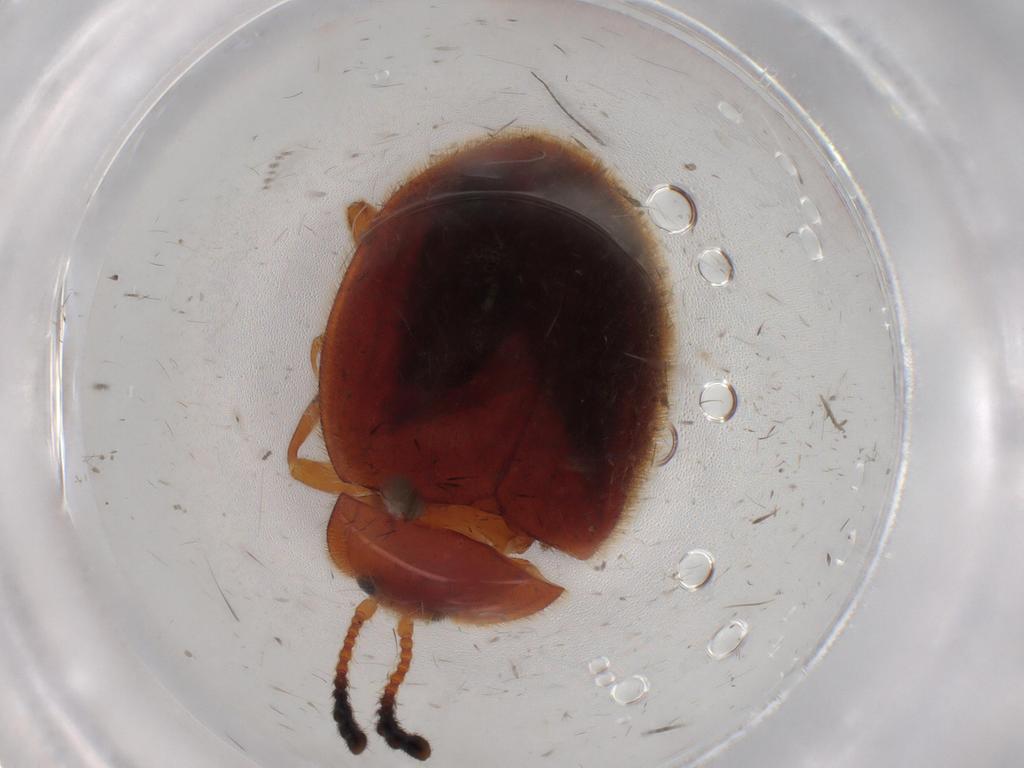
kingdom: Animalia
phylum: Arthropoda
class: Insecta
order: Coleoptera
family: Endomychidae
